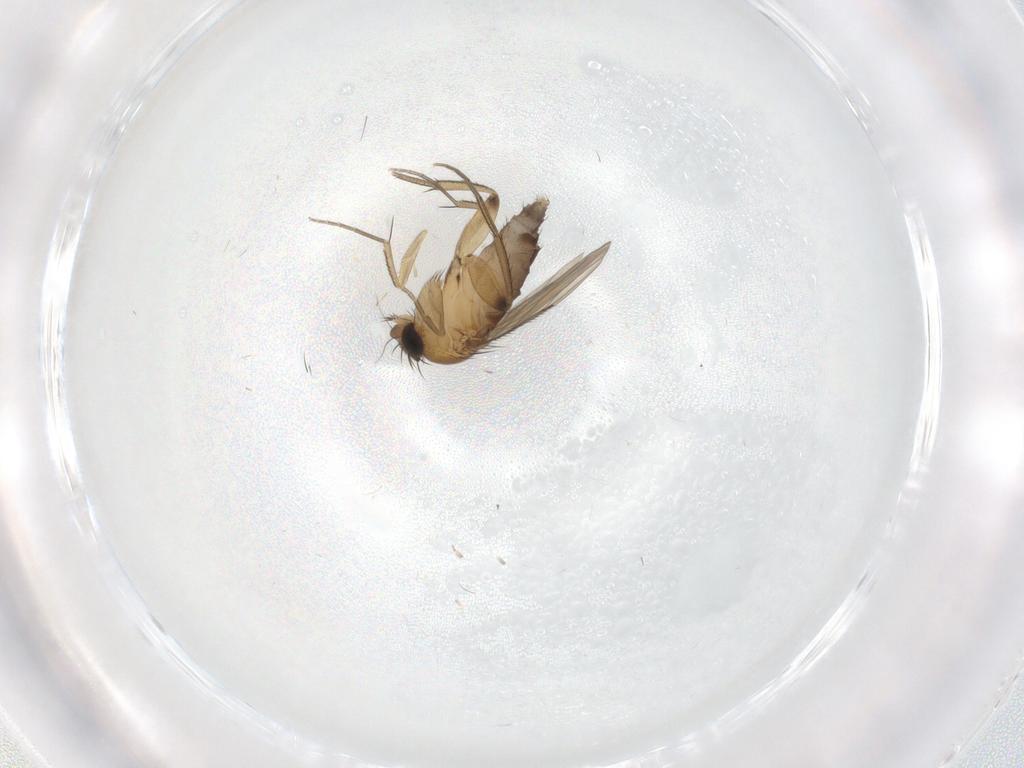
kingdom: Animalia
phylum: Arthropoda
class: Insecta
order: Diptera
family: Phoridae
